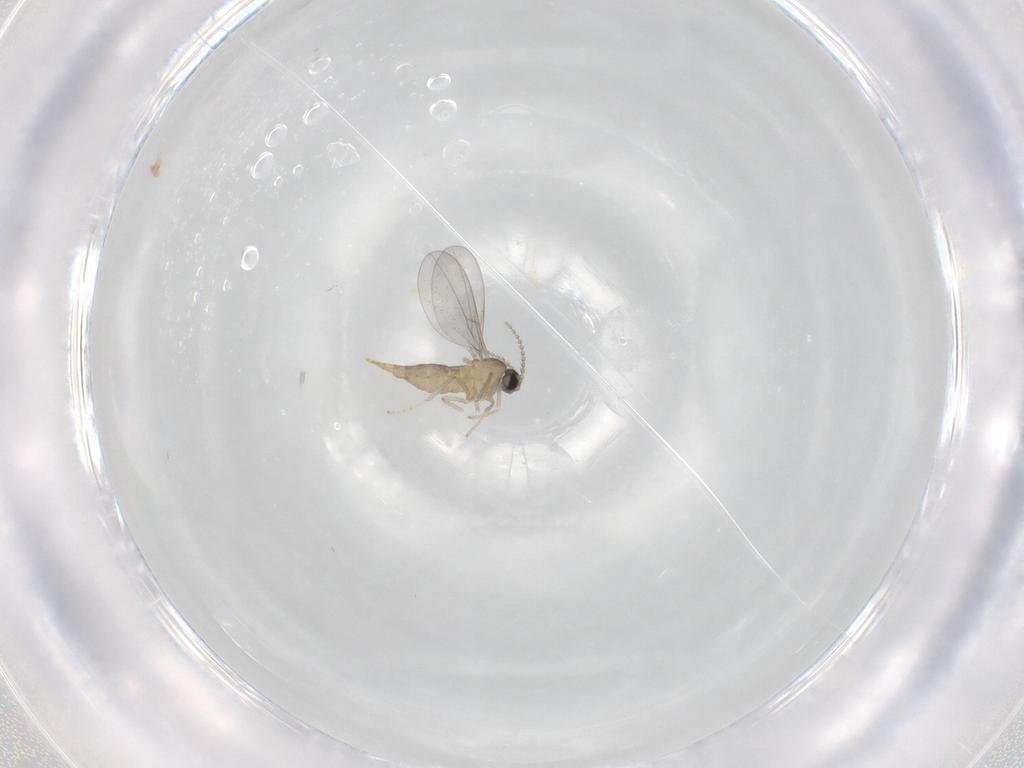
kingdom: Animalia
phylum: Arthropoda
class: Insecta
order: Diptera
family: Cecidomyiidae
